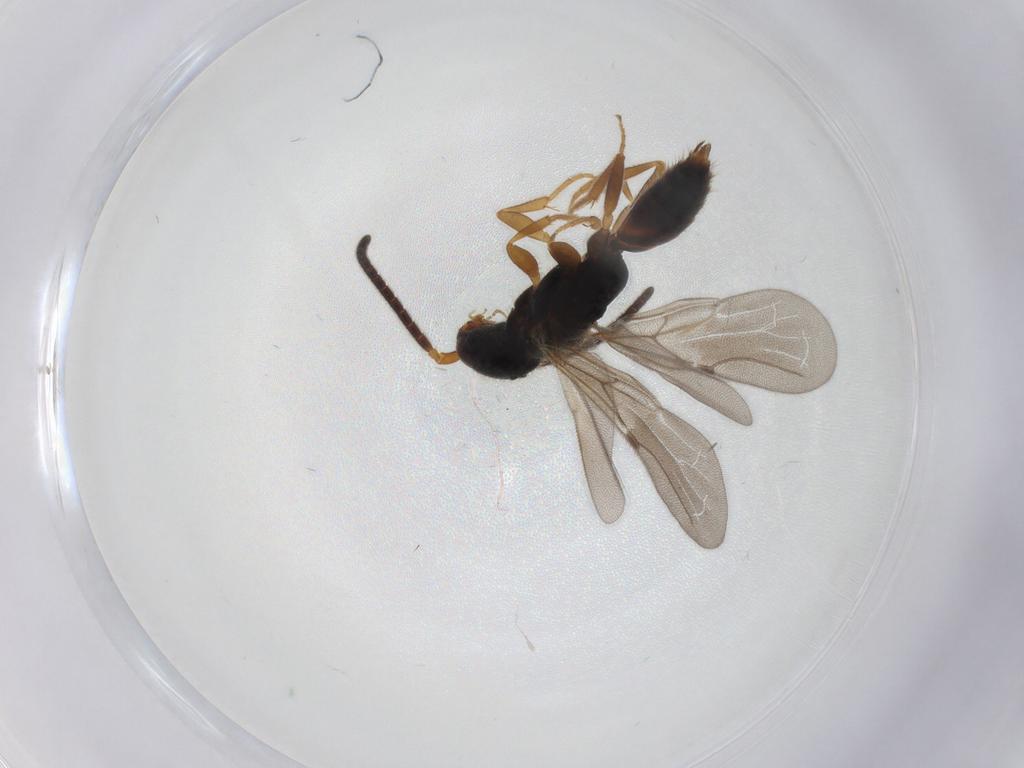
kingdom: Animalia
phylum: Arthropoda
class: Insecta
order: Hymenoptera
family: Bethylidae
